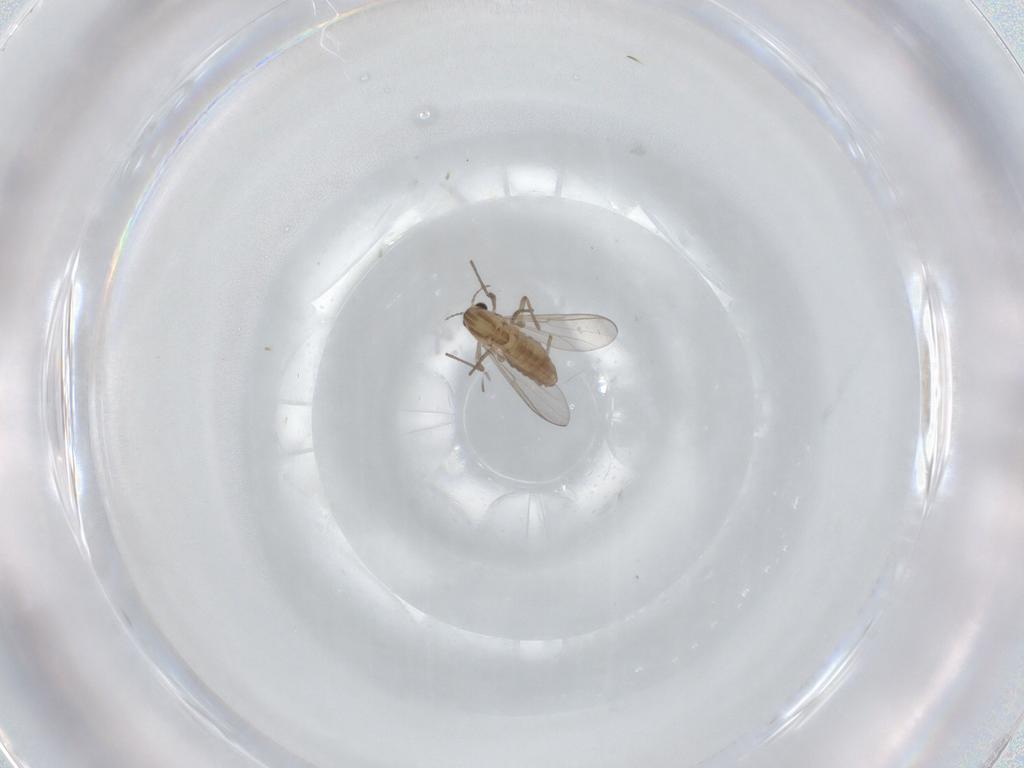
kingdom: Animalia
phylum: Arthropoda
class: Insecta
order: Diptera
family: Chironomidae
